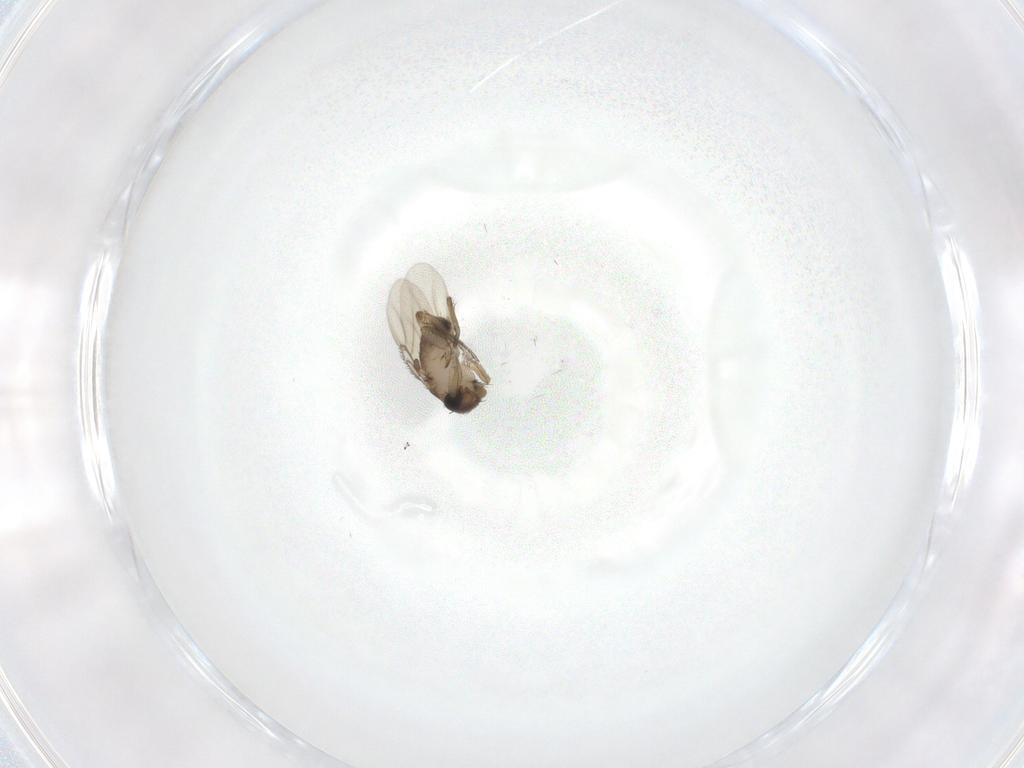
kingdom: Animalia
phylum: Arthropoda
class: Insecta
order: Diptera
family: Phoridae
